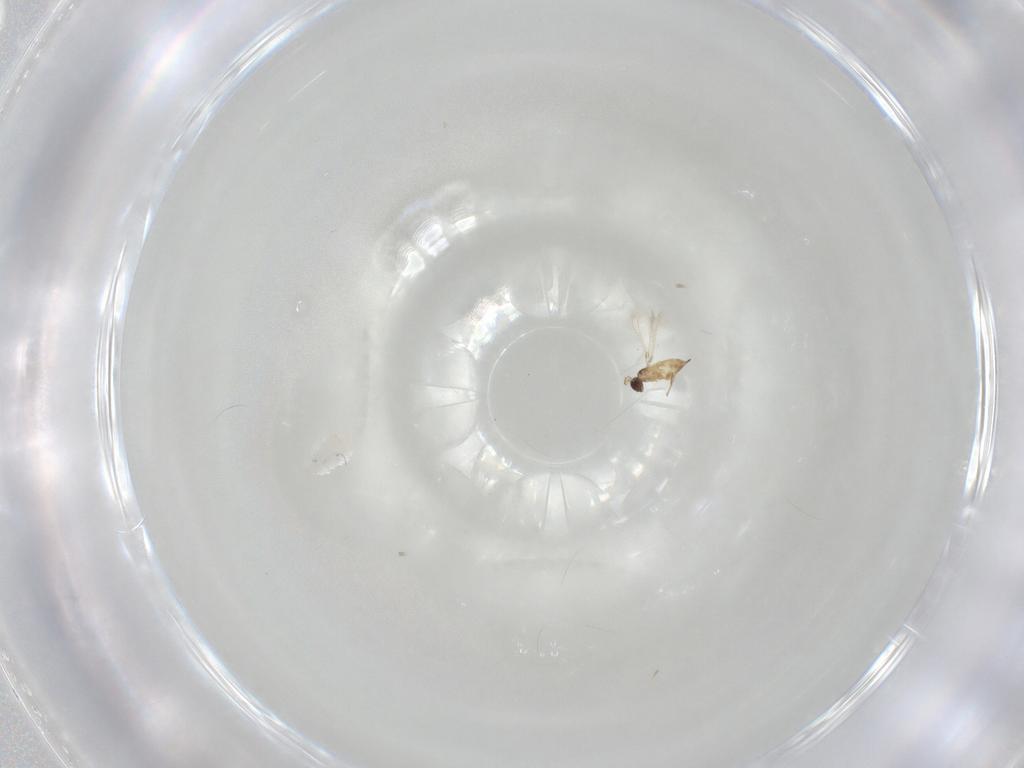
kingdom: Animalia
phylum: Arthropoda
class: Insecta
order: Hymenoptera
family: Mymaridae
